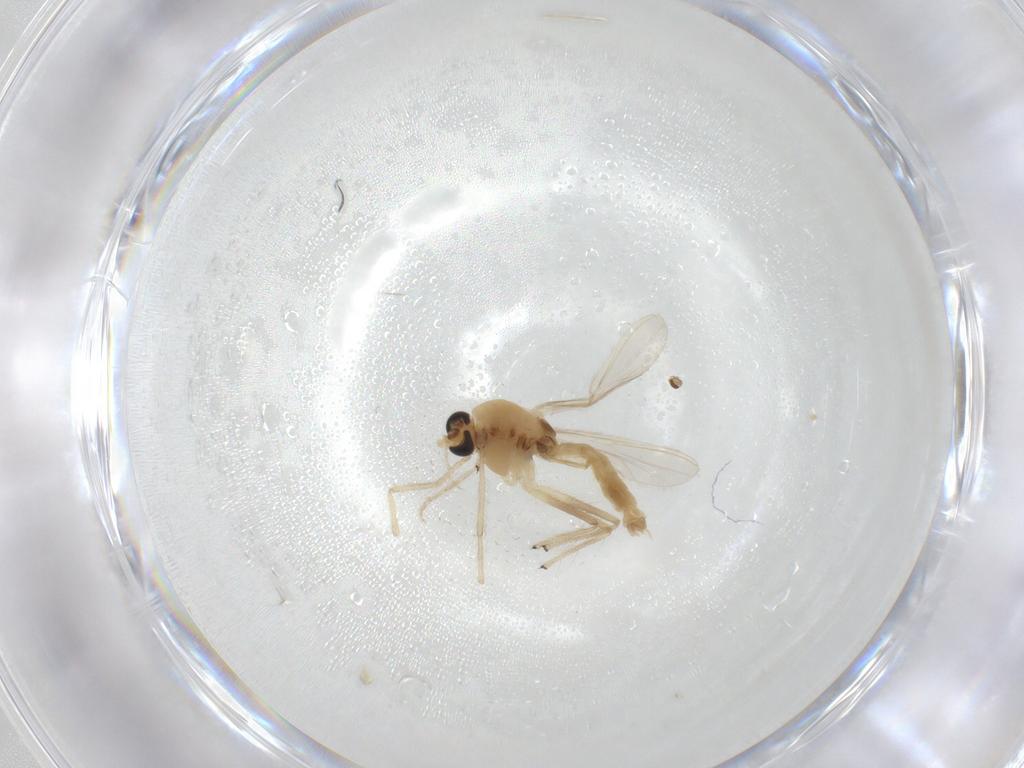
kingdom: Animalia
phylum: Arthropoda
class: Insecta
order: Diptera
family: Chironomidae
